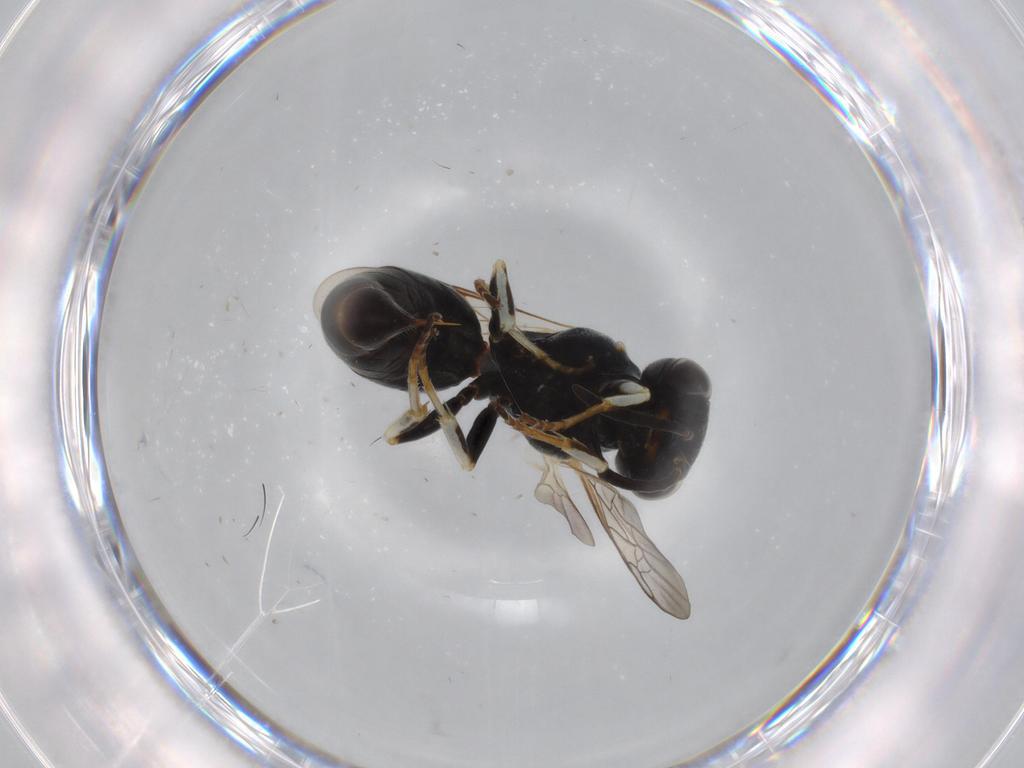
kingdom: Animalia
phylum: Arthropoda
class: Insecta
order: Hymenoptera
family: Crabronidae
